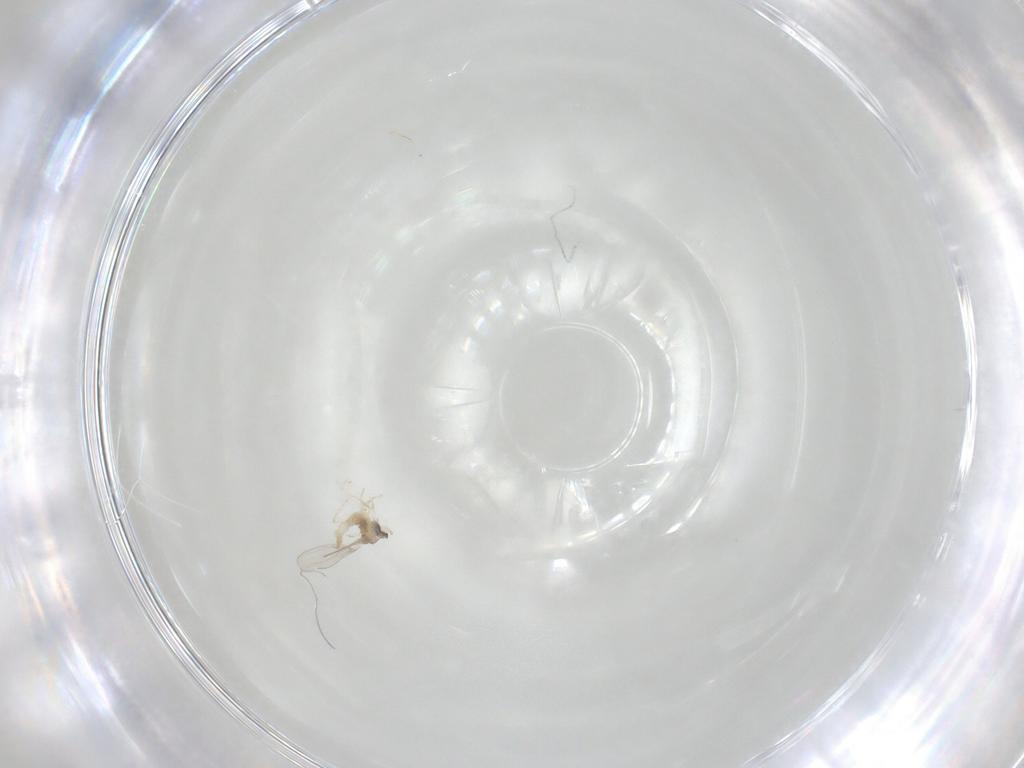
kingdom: Animalia
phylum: Arthropoda
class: Insecta
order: Diptera
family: Cecidomyiidae
